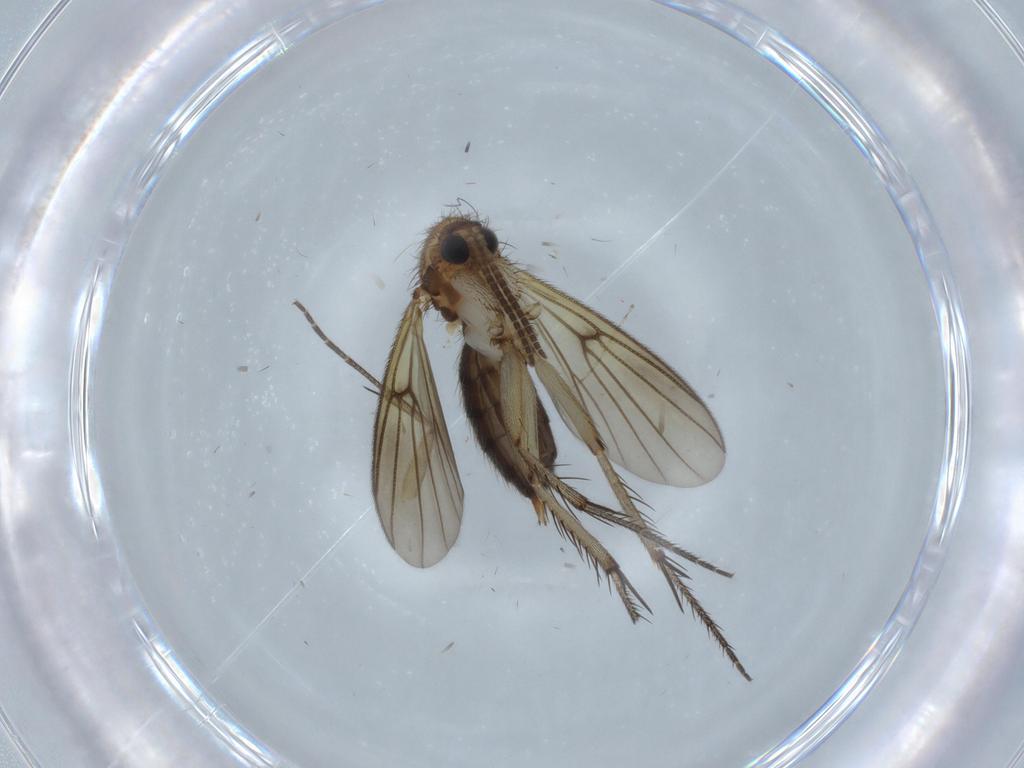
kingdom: Animalia
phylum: Arthropoda
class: Insecta
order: Diptera
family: Mycetophilidae
